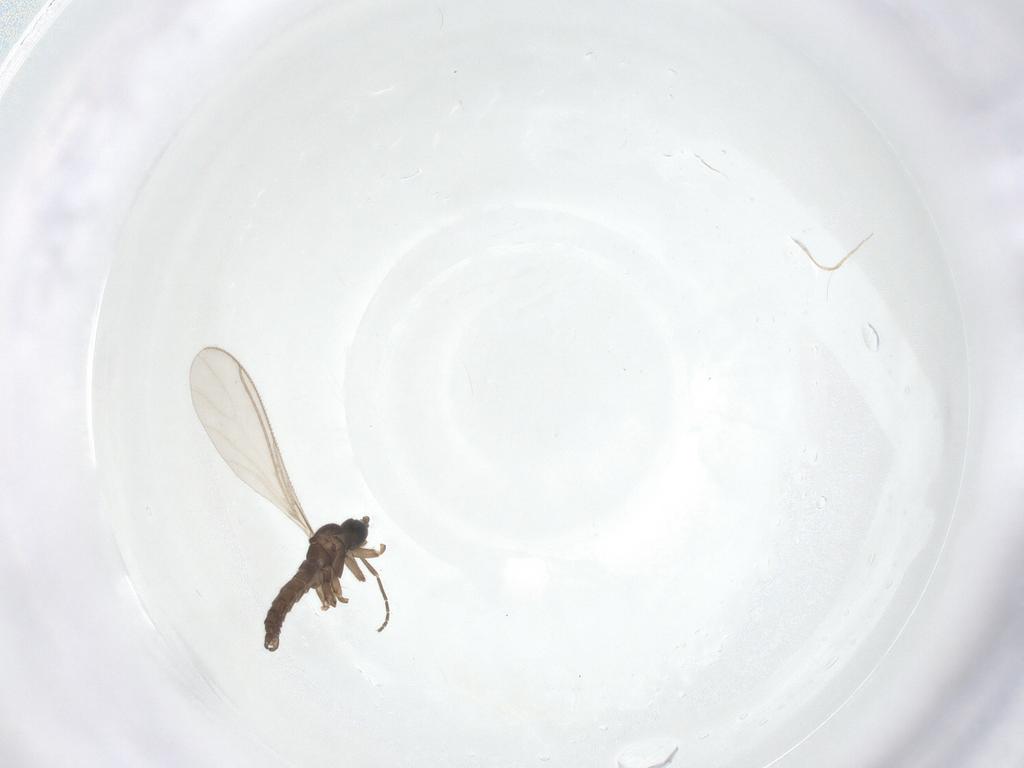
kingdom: Animalia
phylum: Arthropoda
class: Insecta
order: Diptera
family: Sciaridae
